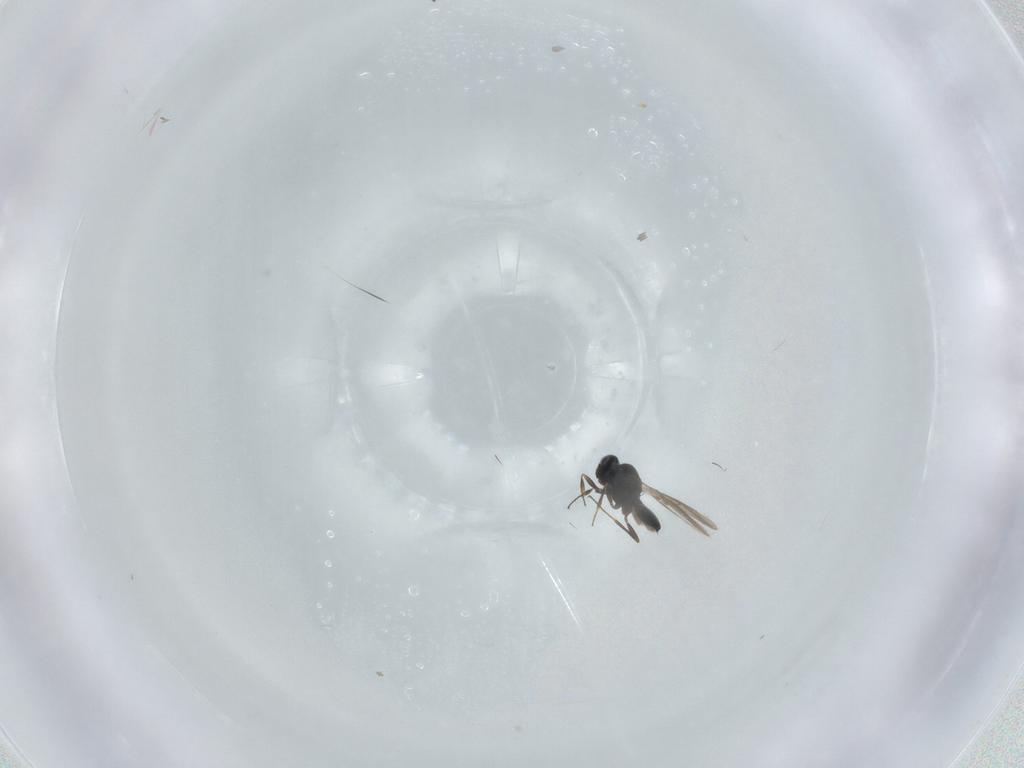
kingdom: Animalia
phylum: Arthropoda
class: Insecta
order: Hymenoptera
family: Scelionidae
